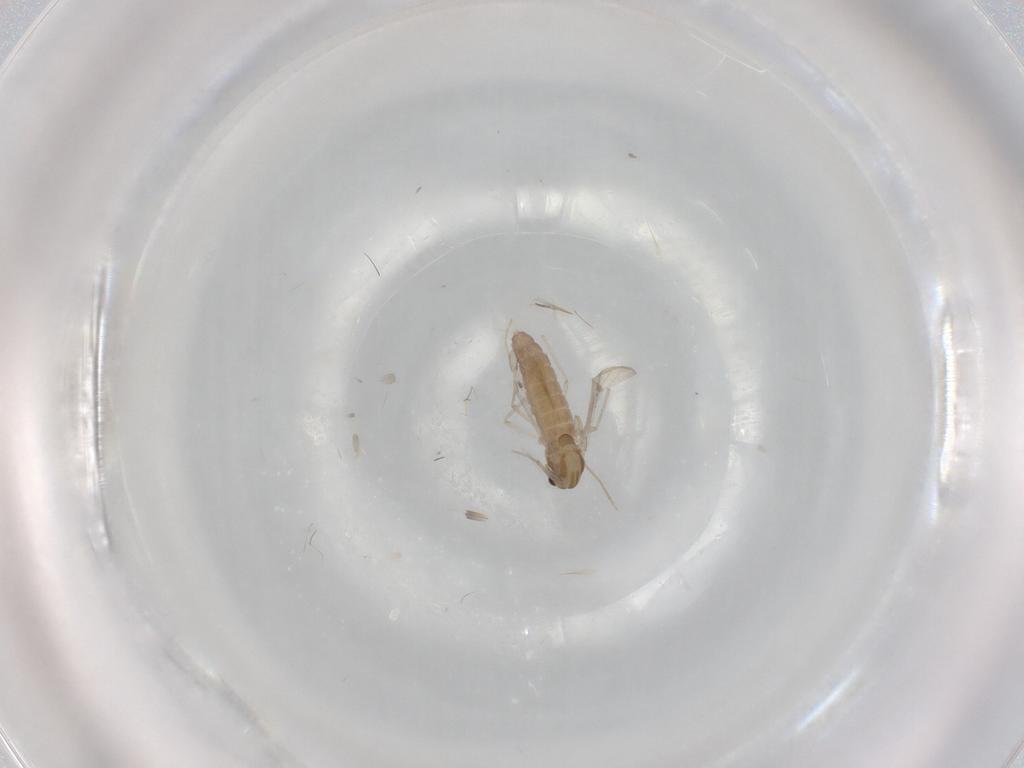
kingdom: Animalia
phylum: Arthropoda
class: Insecta
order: Diptera
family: Chironomidae
